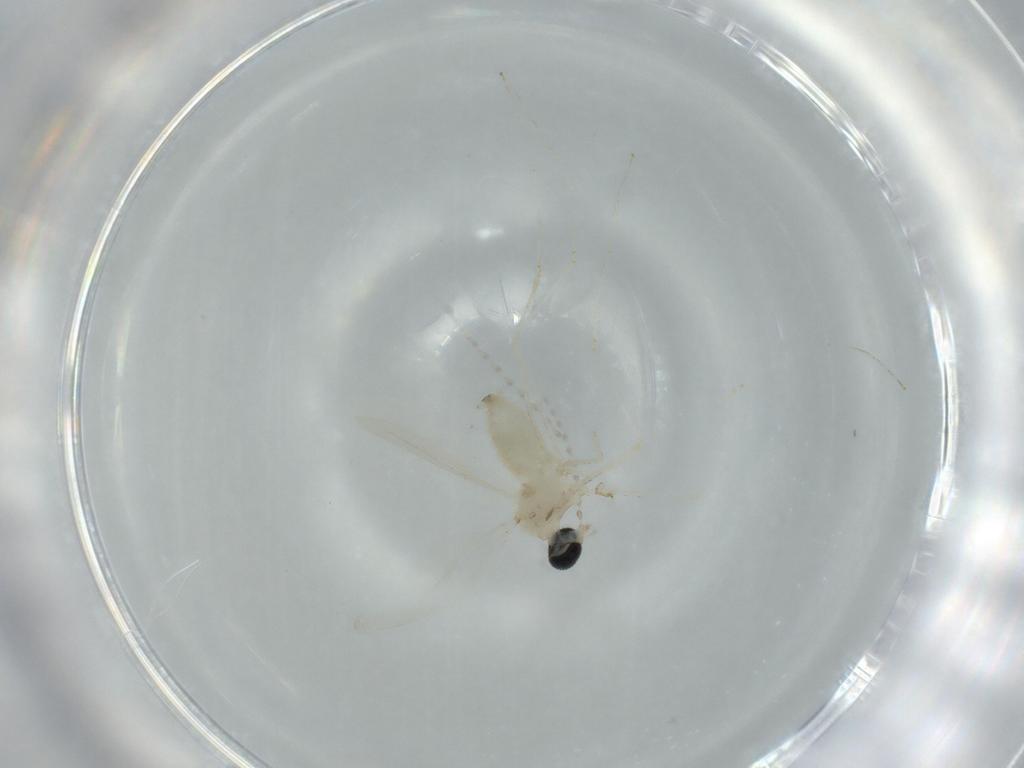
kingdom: Animalia
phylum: Arthropoda
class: Insecta
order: Diptera
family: Cecidomyiidae
